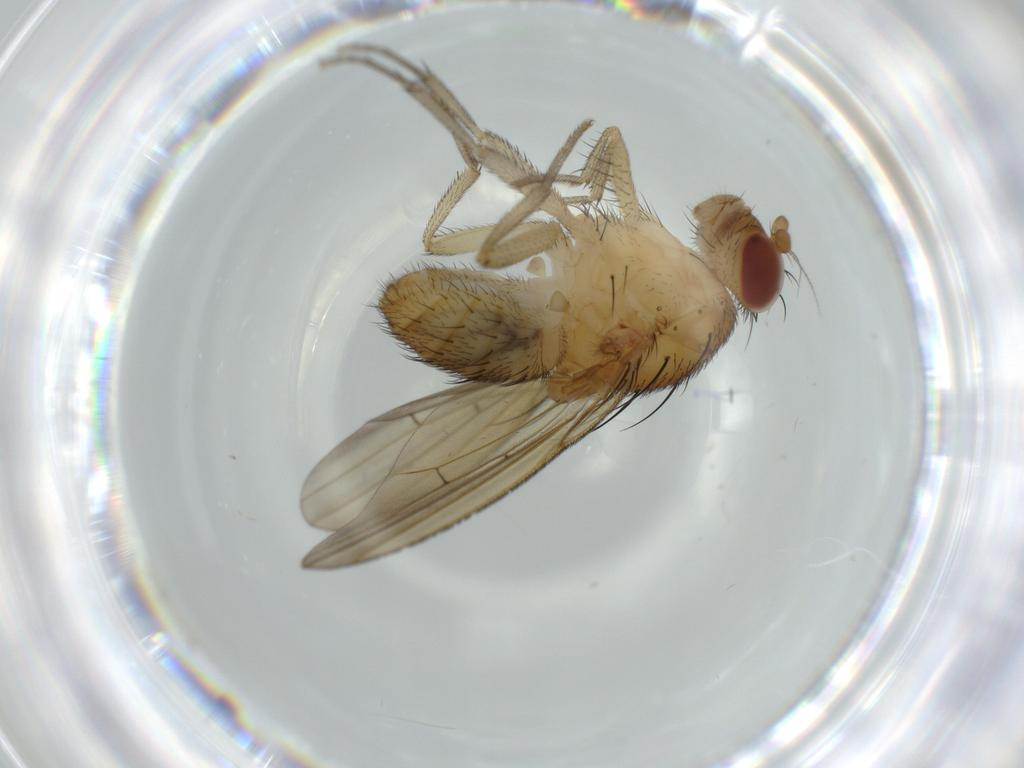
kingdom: Animalia
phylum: Arthropoda
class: Insecta
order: Diptera
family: Lauxaniidae
